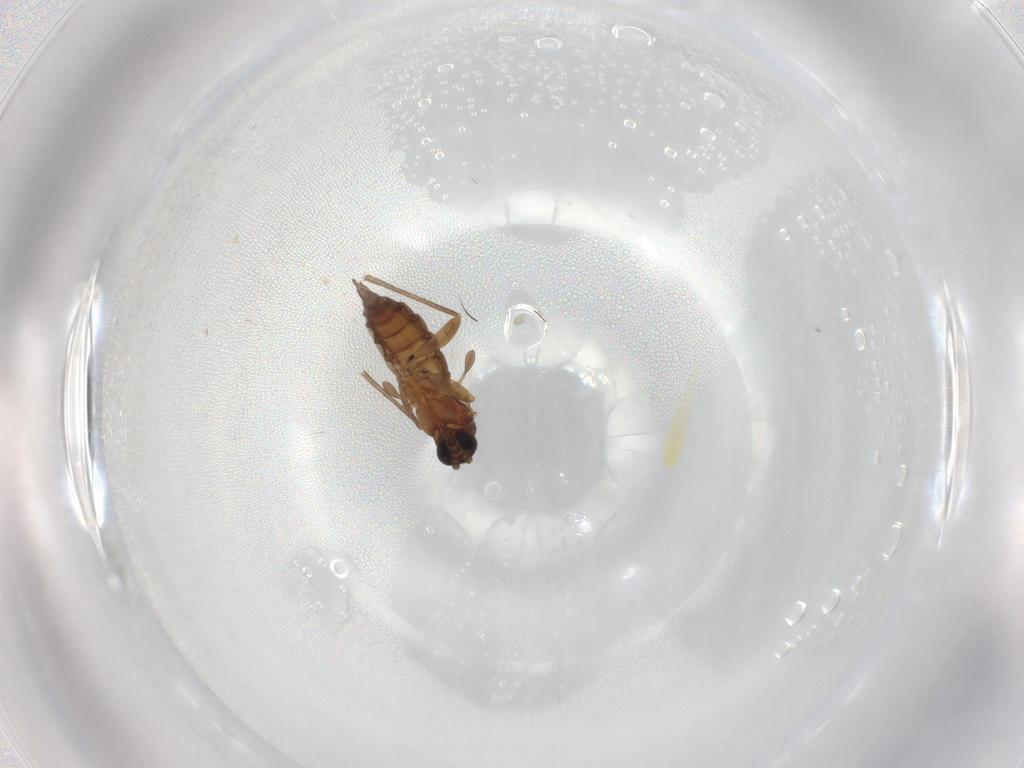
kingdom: Animalia
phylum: Arthropoda
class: Insecta
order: Diptera
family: Sciaridae
